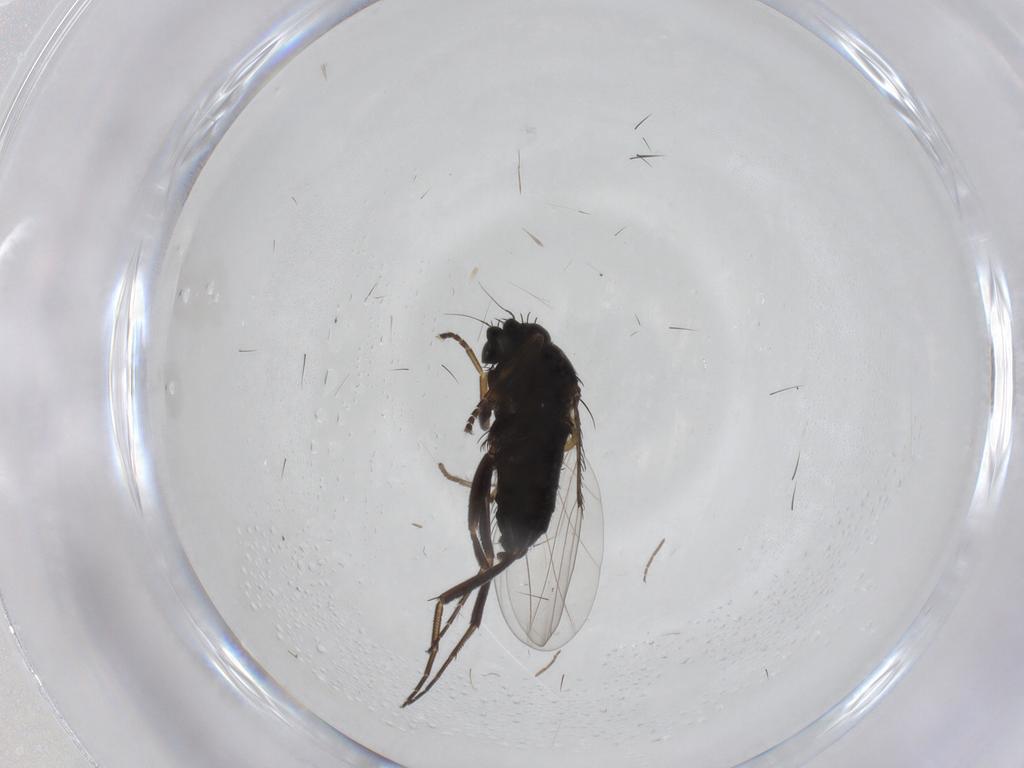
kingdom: Animalia
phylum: Arthropoda
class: Insecta
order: Diptera
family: Phoridae
